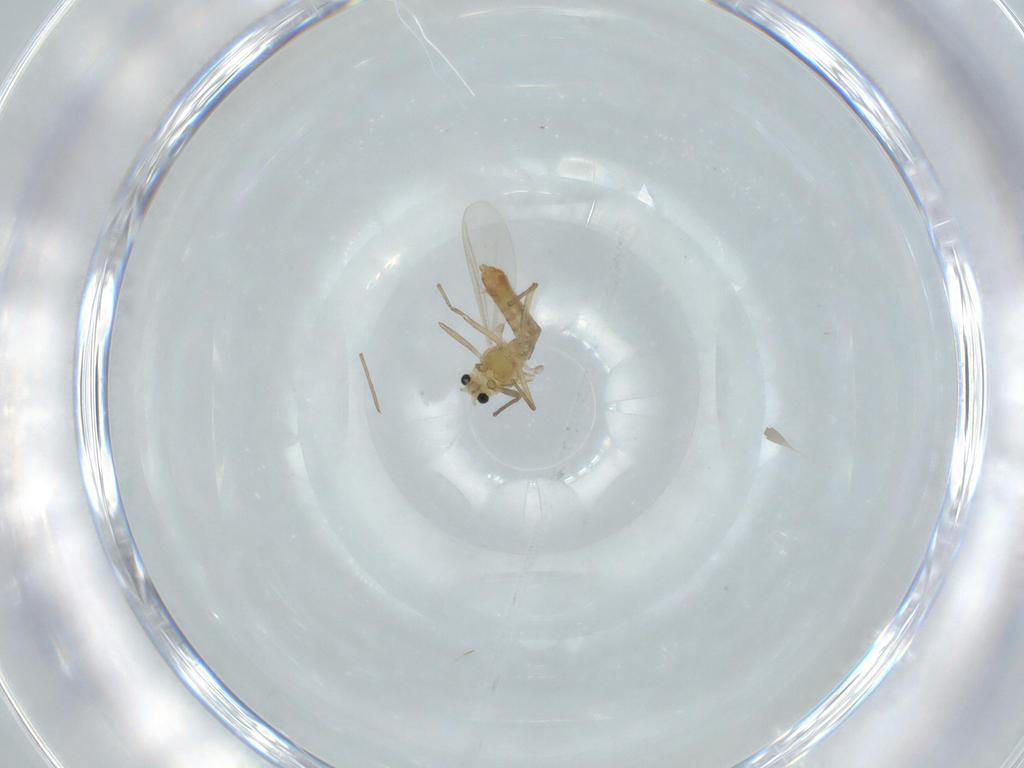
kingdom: Animalia
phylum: Arthropoda
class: Insecta
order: Diptera
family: Chironomidae
